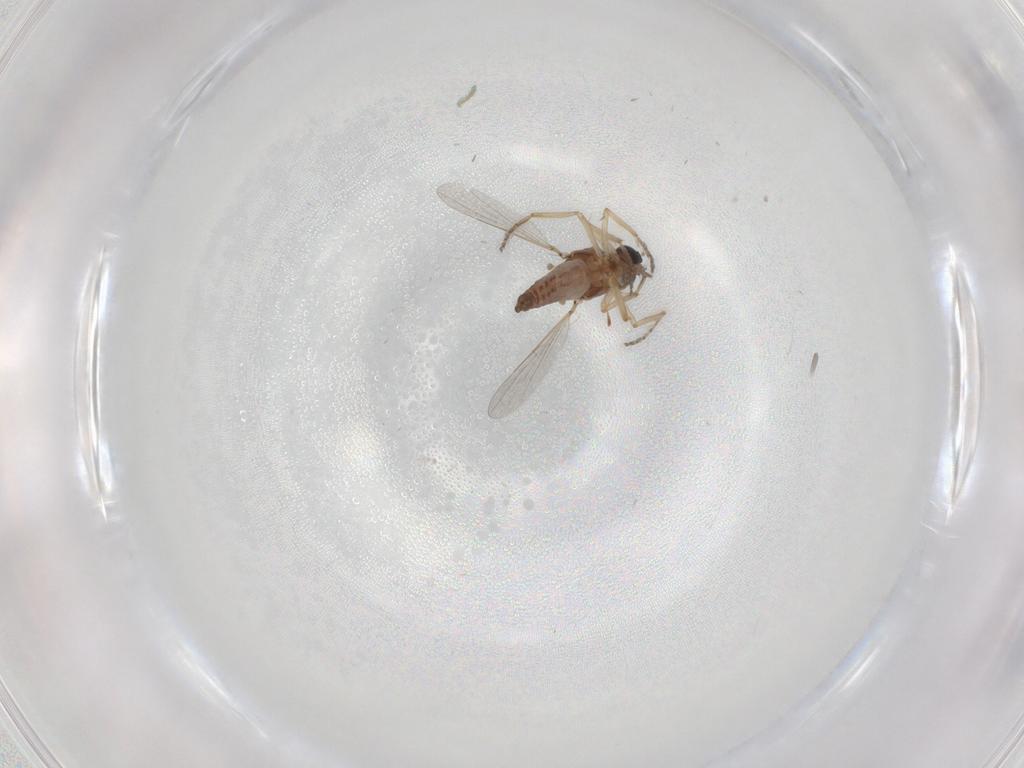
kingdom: Animalia
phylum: Arthropoda
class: Insecta
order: Diptera
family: Ceratopogonidae
